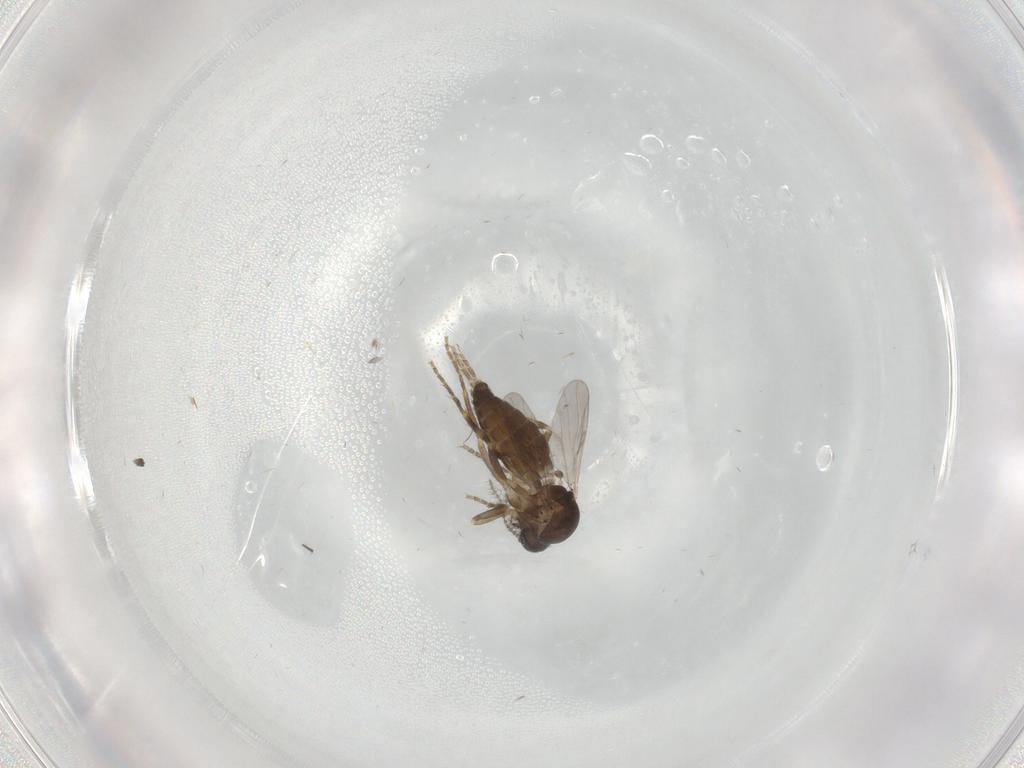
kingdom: Animalia
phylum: Arthropoda
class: Insecta
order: Diptera
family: Ceratopogonidae
